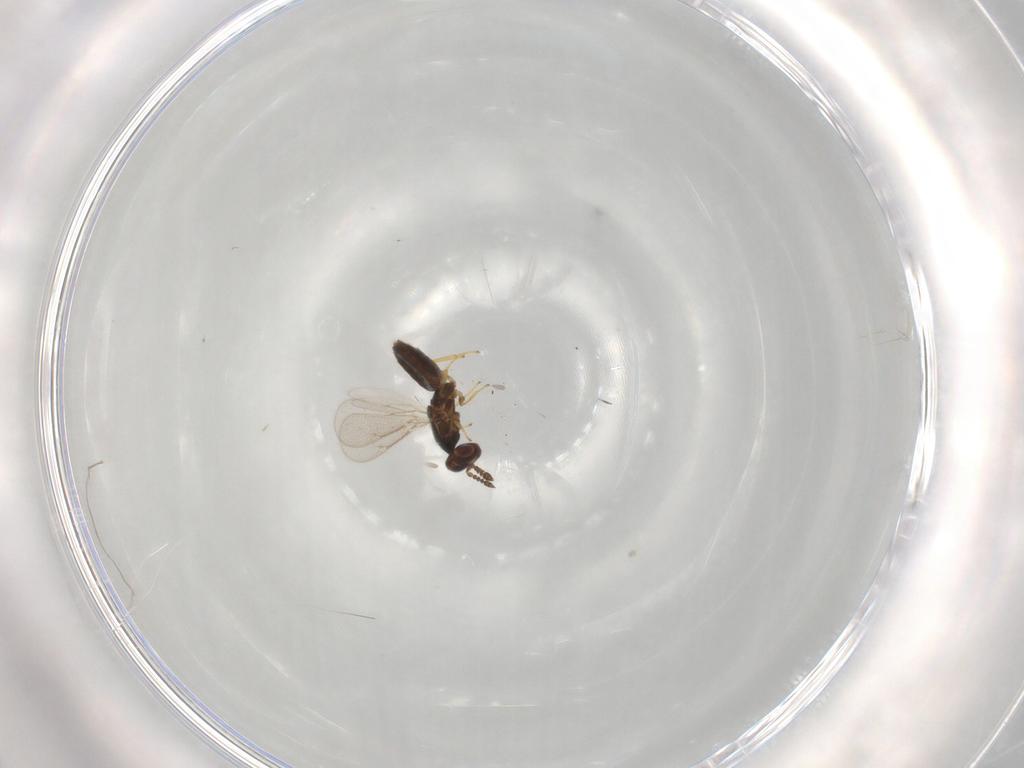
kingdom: Animalia
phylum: Arthropoda
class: Insecta
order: Hymenoptera
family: Eulophidae
